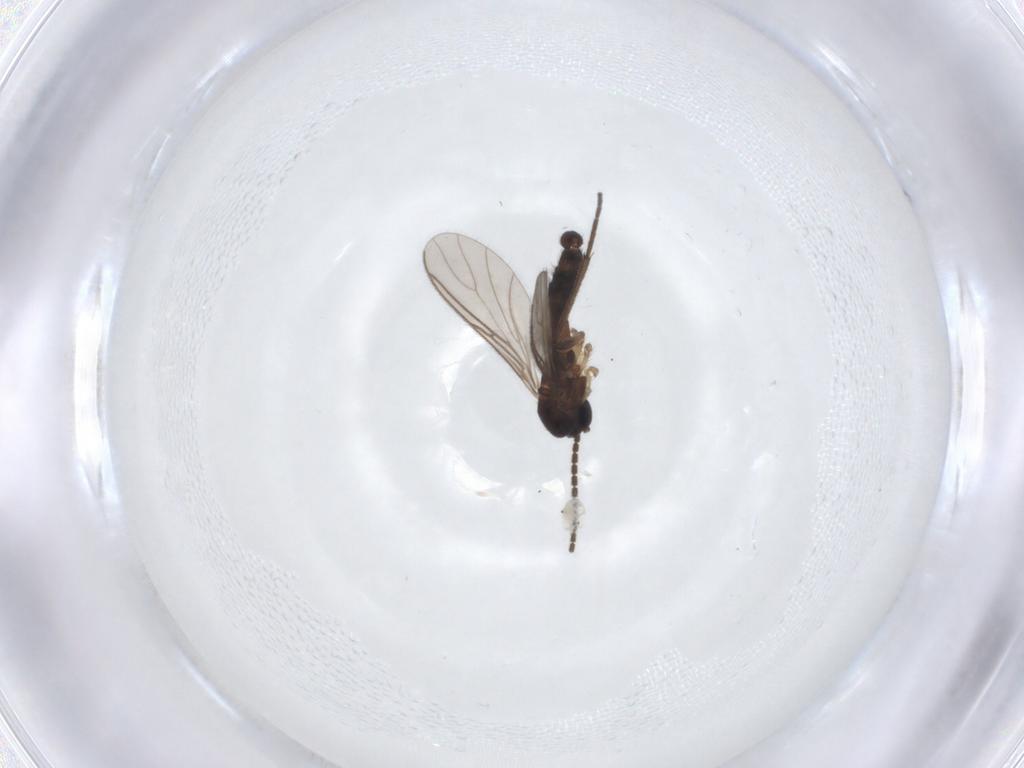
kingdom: Animalia
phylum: Arthropoda
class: Insecta
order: Diptera
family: Sciaridae
